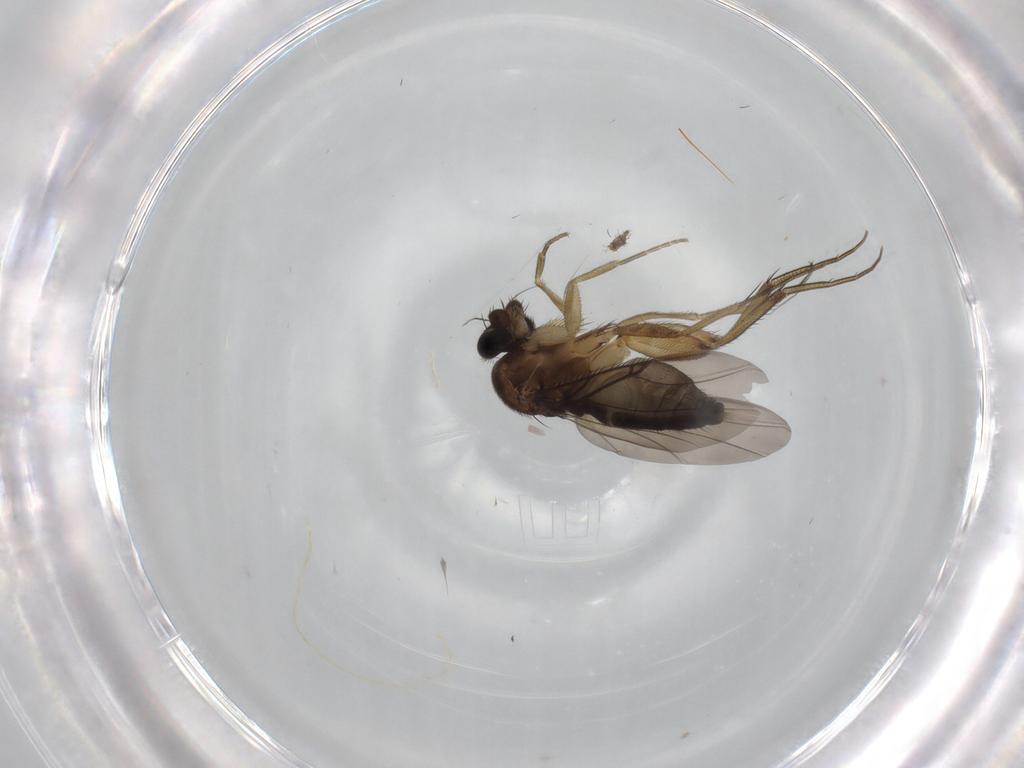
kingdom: Animalia
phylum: Arthropoda
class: Insecta
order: Diptera
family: Phoridae
